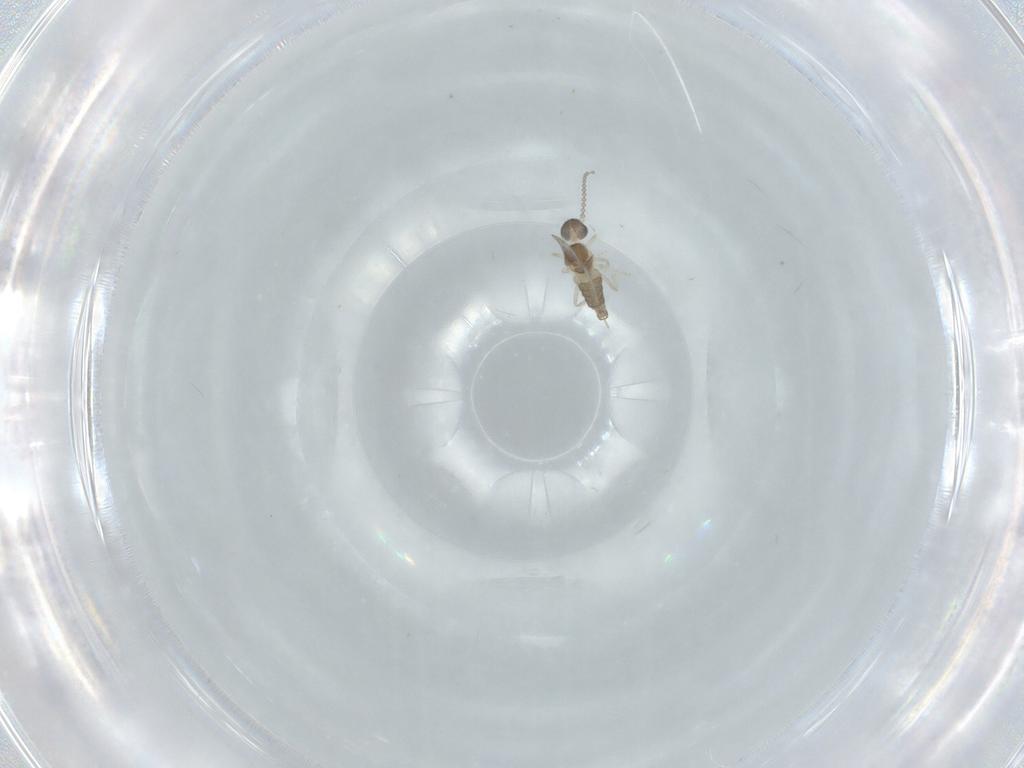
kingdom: Animalia
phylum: Arthropoda
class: Insecta
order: Diptera
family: Cecidomyiidae
